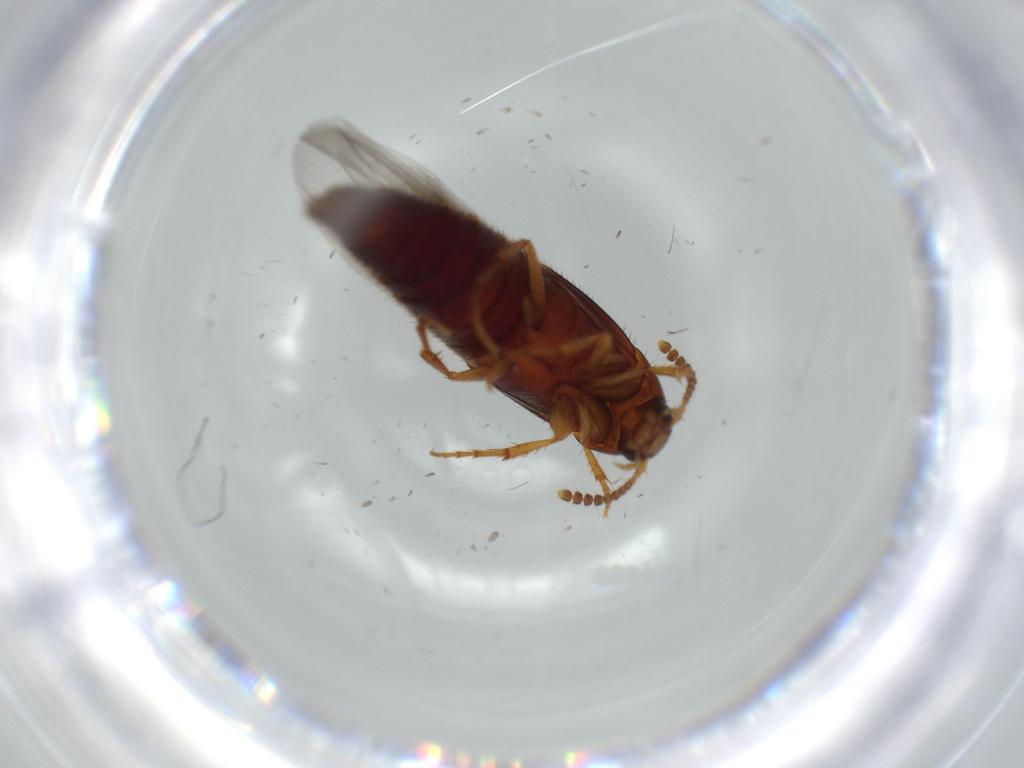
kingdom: Animalia
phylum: Arthropoda
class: Insecta
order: Coleoptera
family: Staphylinidae
